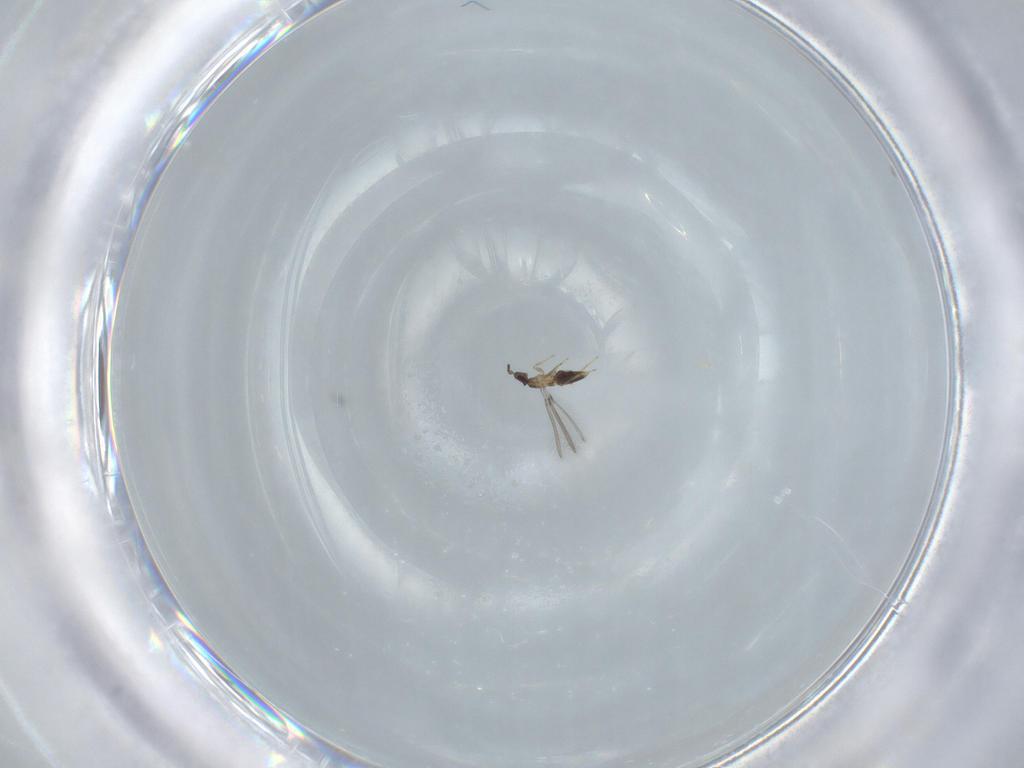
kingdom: Animalia
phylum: Arthropoda
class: Insecta
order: Hymenoptera
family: Mymaridae
